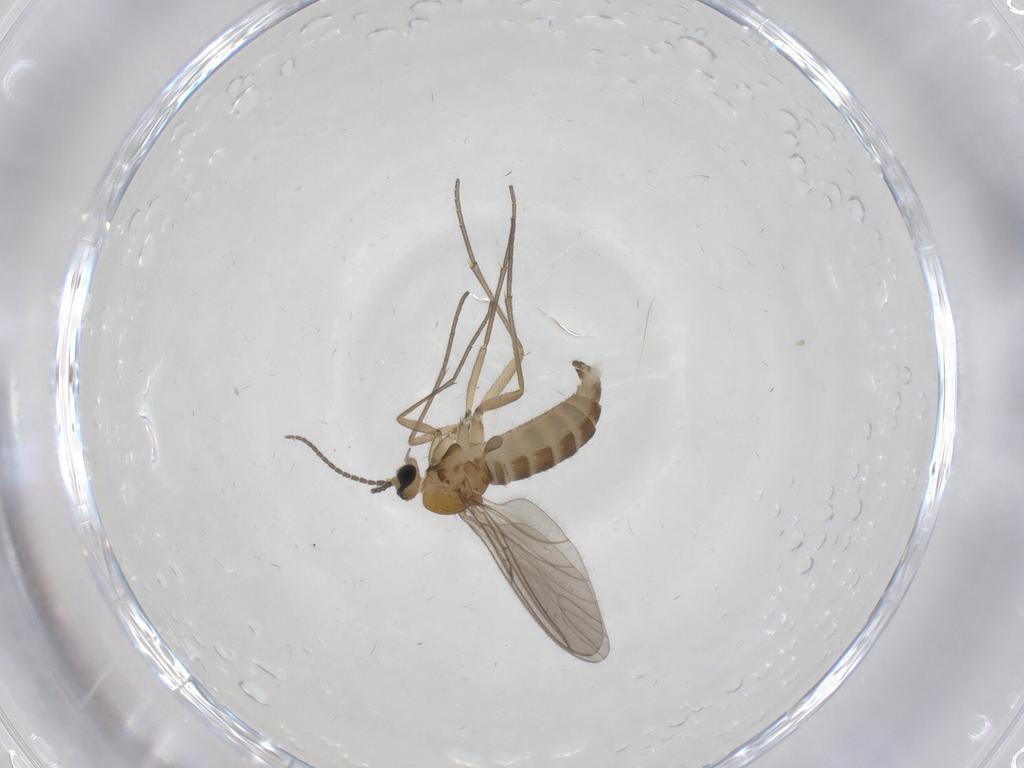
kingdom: Animalia
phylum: Arthropoda
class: Insecta
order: Diptera
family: Sciaridae
